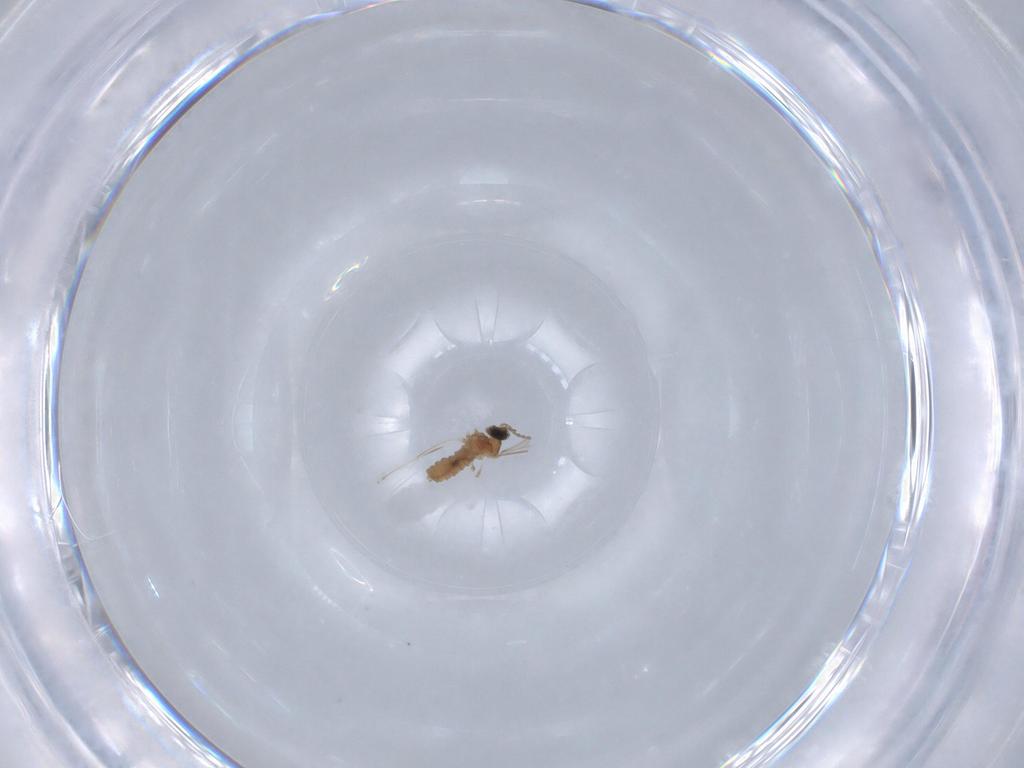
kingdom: Animalia
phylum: Arthropoda
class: Insecta
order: Diptera
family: Cecidomyiidae
